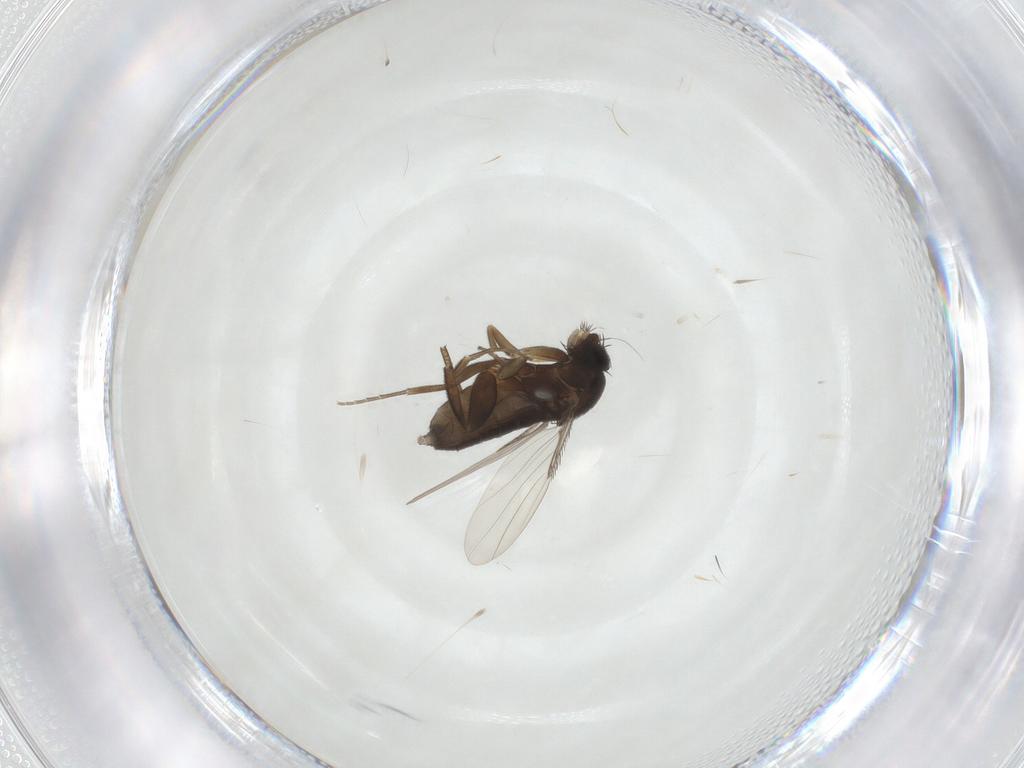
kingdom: Animalia
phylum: Arthropoda
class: Insecta
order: Diptera
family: Phoridae
